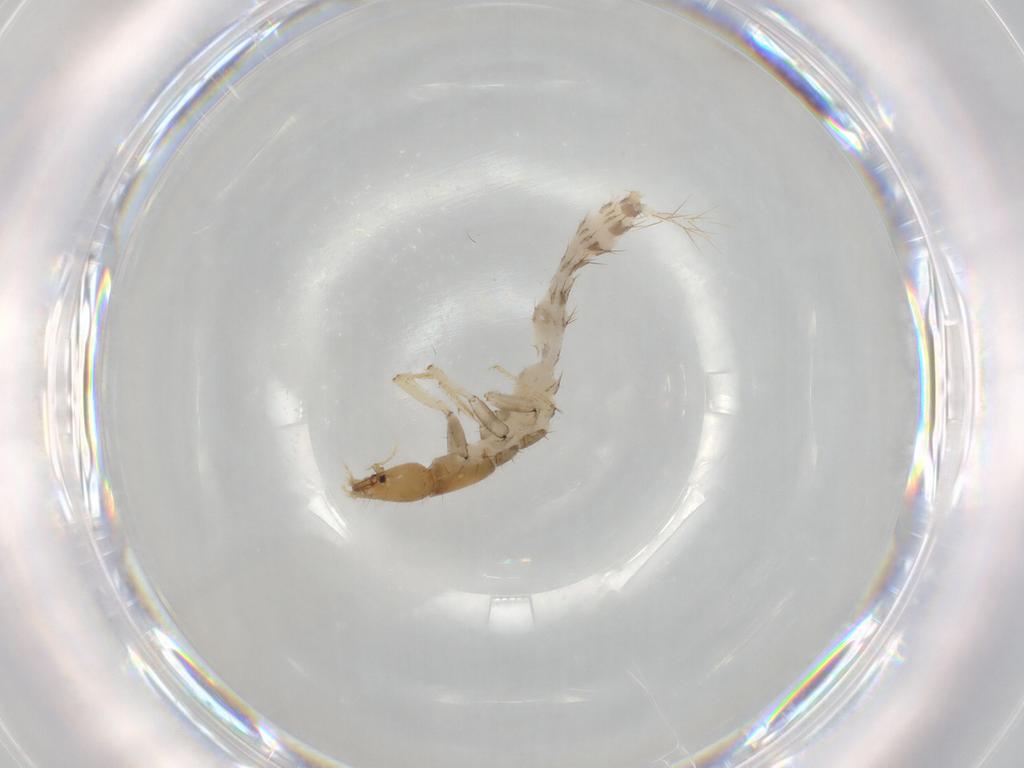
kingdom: Animalia
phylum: Arthropoda
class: Insecta
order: Coleoptera
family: Staphylinidae
